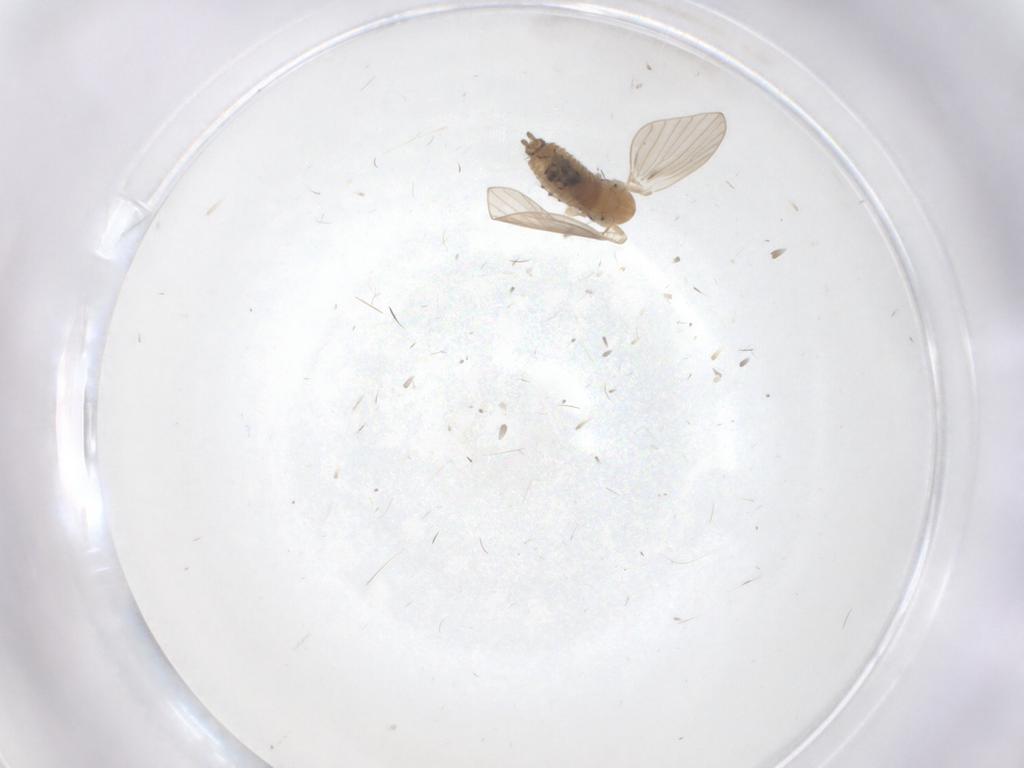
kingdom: Animalia
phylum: Arthropoda
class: Insecta
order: Diptera
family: Psychodidae
